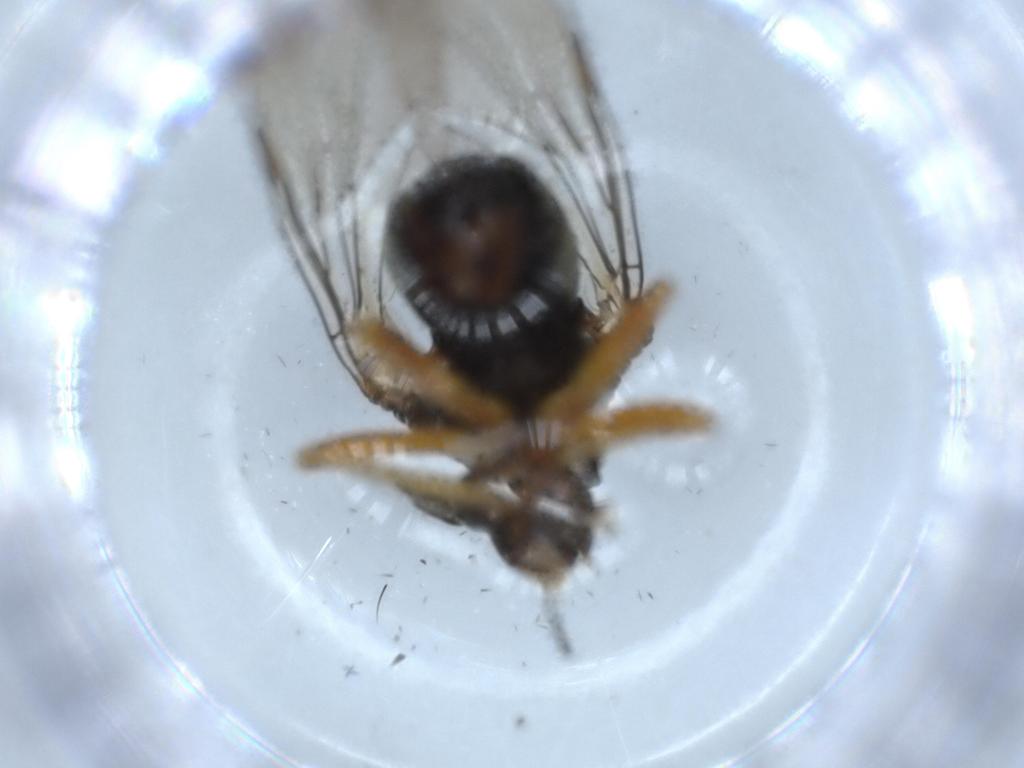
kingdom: Animalia
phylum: Arthropoda
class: Insecta
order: Diptera
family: Pipunculidae
